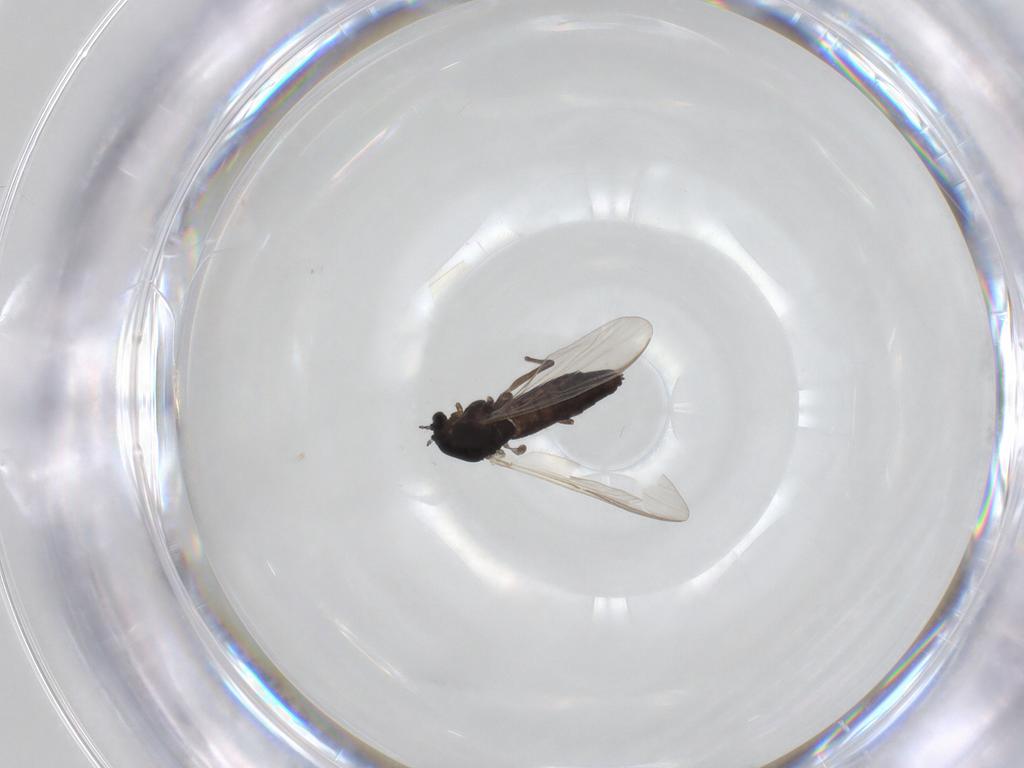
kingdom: Animalia
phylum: Arthropoda
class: Insecta
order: Diptera
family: Chironomidae
